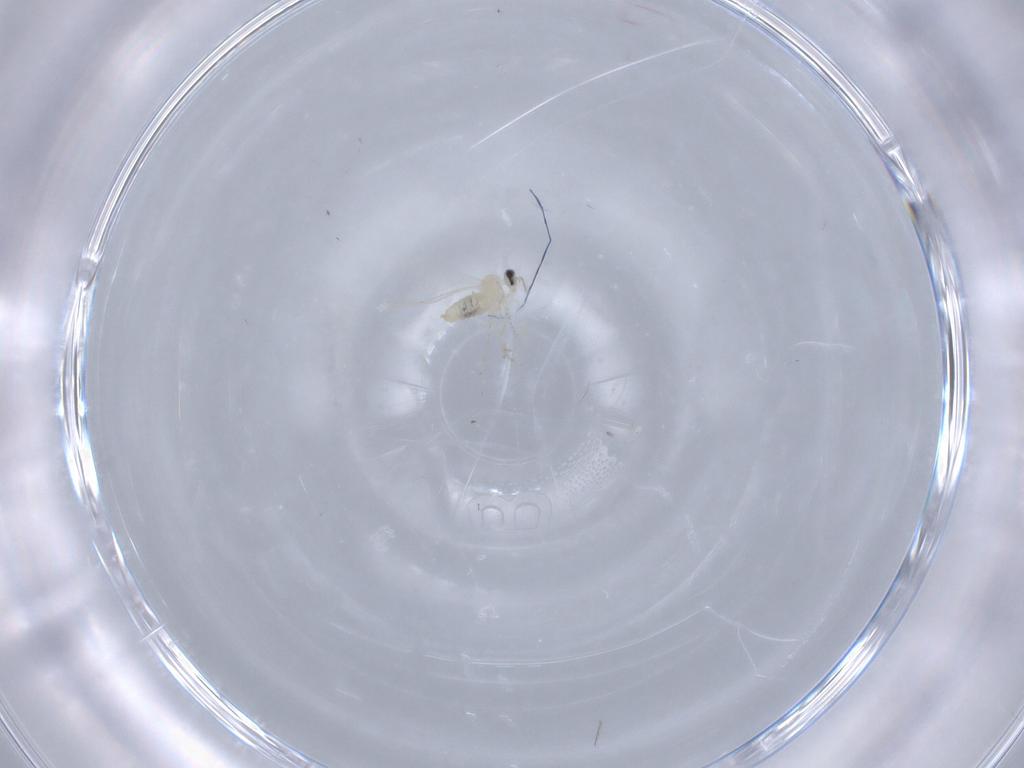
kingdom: Animalia
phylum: Arthropoda
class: Insecta
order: Diptera
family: Cecidomyiidae
